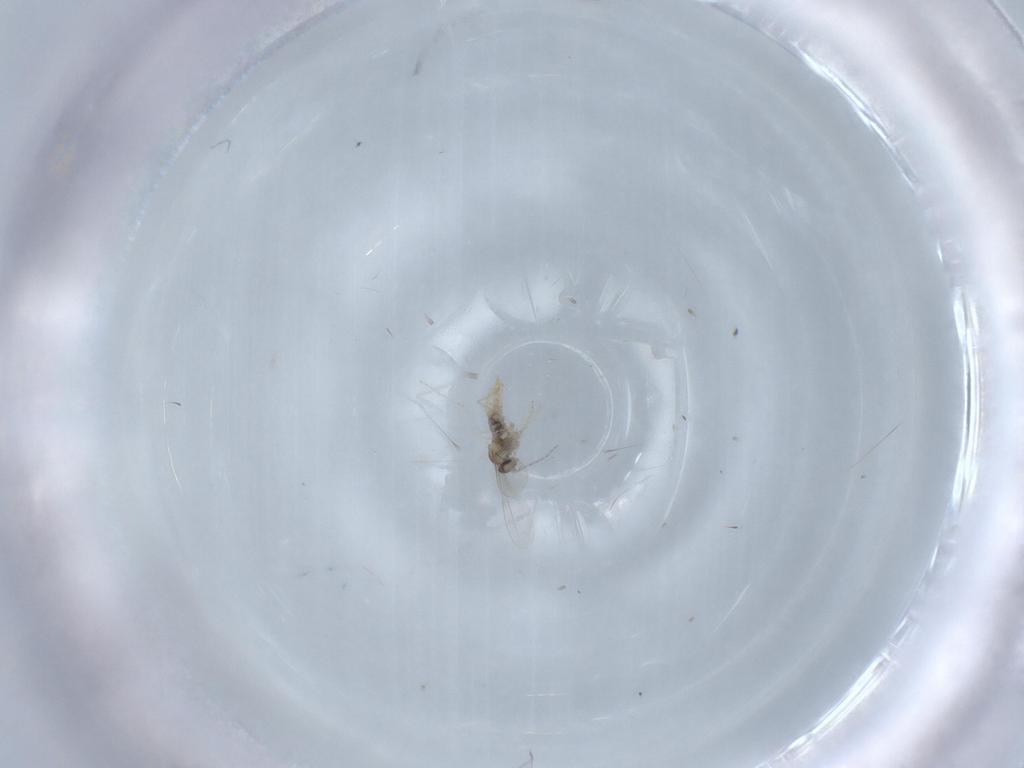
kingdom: Animalia
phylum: Arthropoda
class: Insecta
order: Diptera
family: Cecidomyiidae
